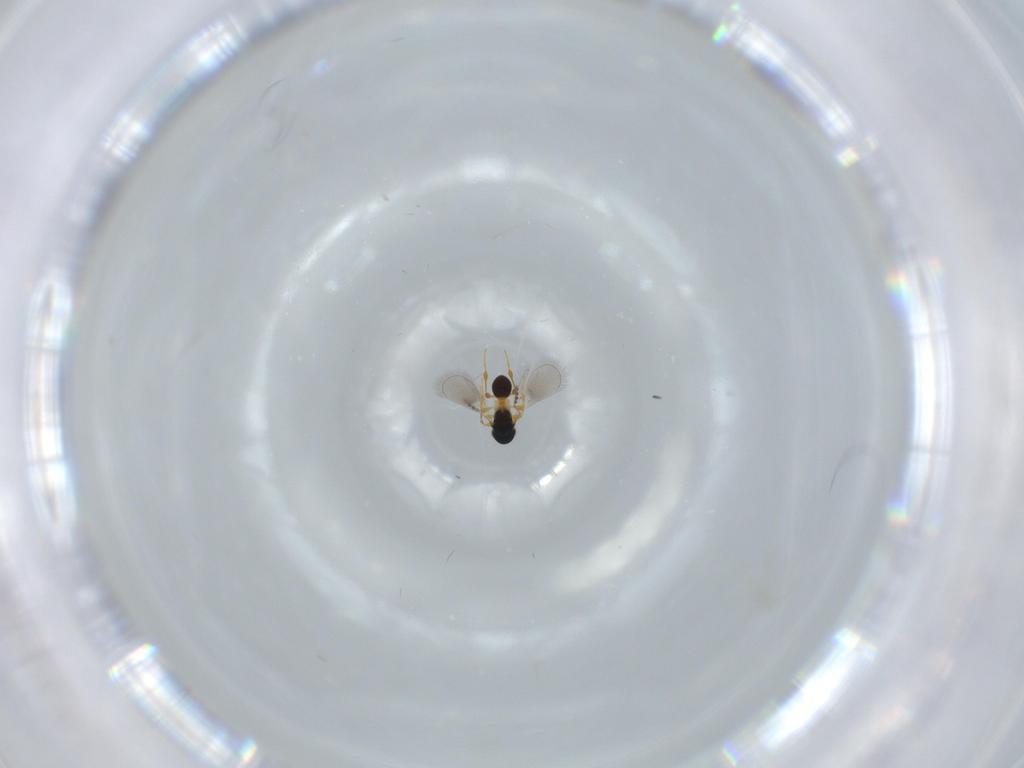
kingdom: Animalia
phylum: Arthropoda
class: Insecta
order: Hymenoptera
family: Platygastridae
